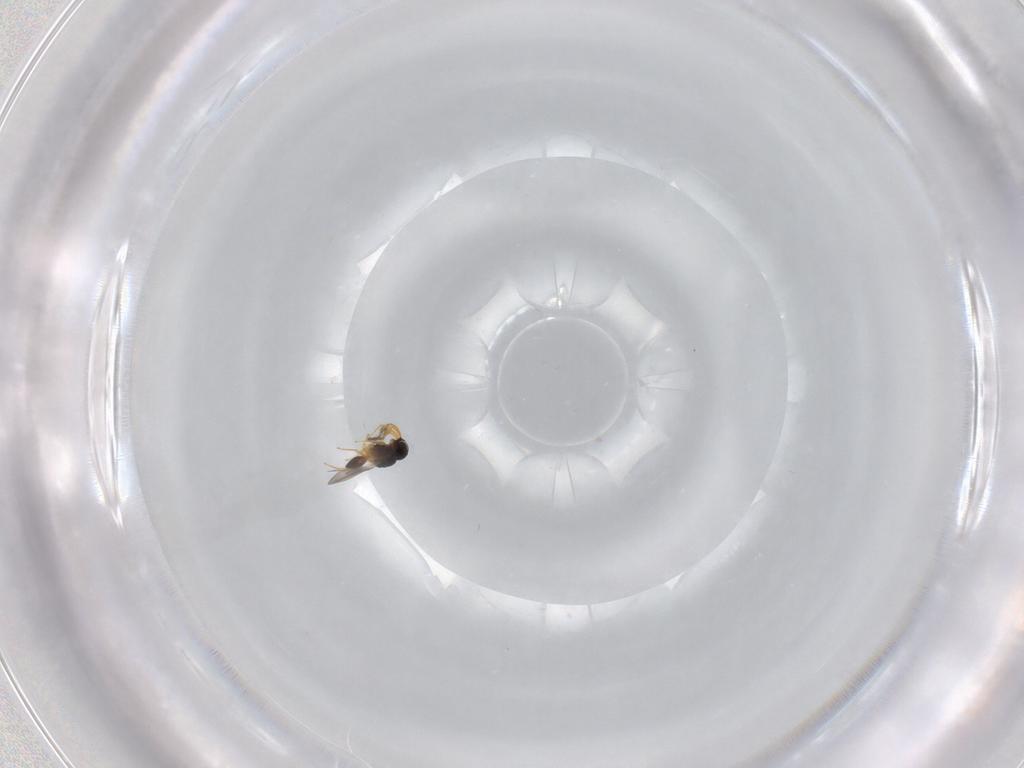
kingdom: Animalia
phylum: Arthropoda
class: Insecta
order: Hymenoptera
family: Platygastridae
